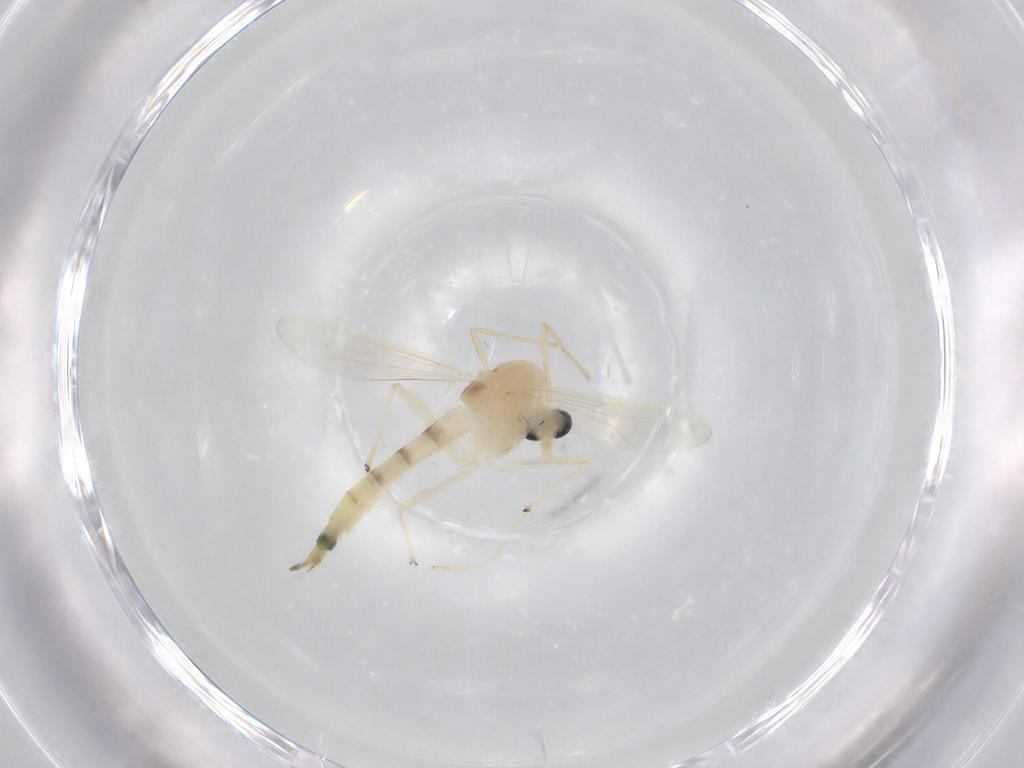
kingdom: Animalia
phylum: Arthropoda
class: Insecta
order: Diptera
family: Chironomidae
